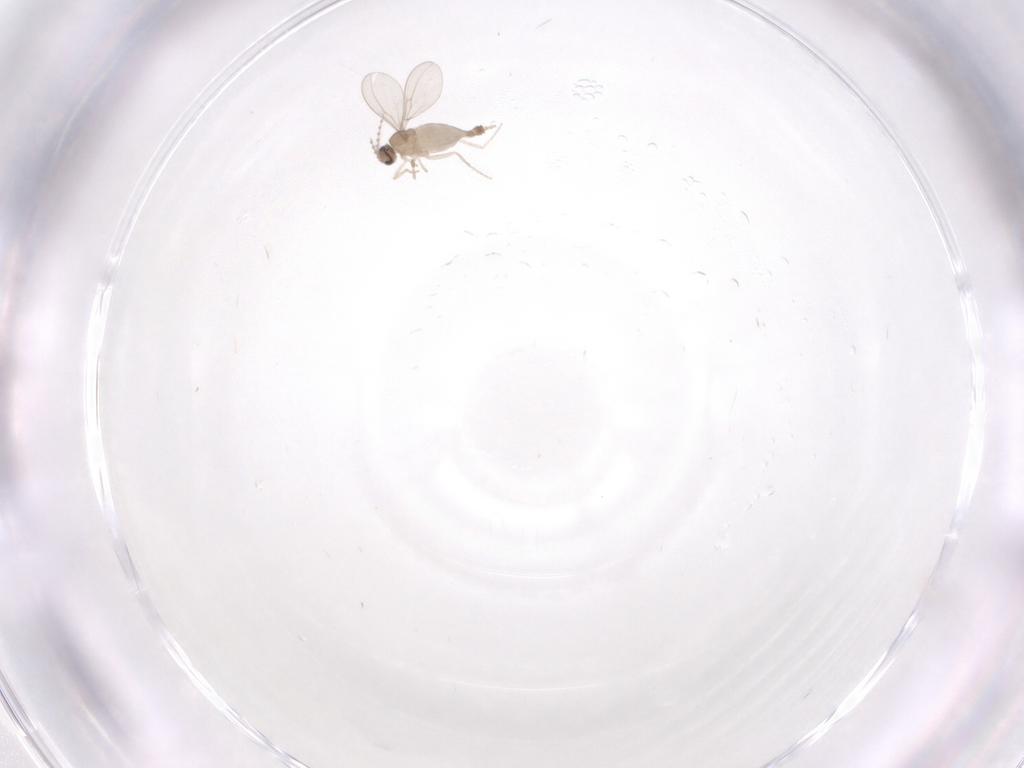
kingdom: Animalia
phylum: Arthropoda
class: Insecta
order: Diptera
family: Cecidomyiidae
